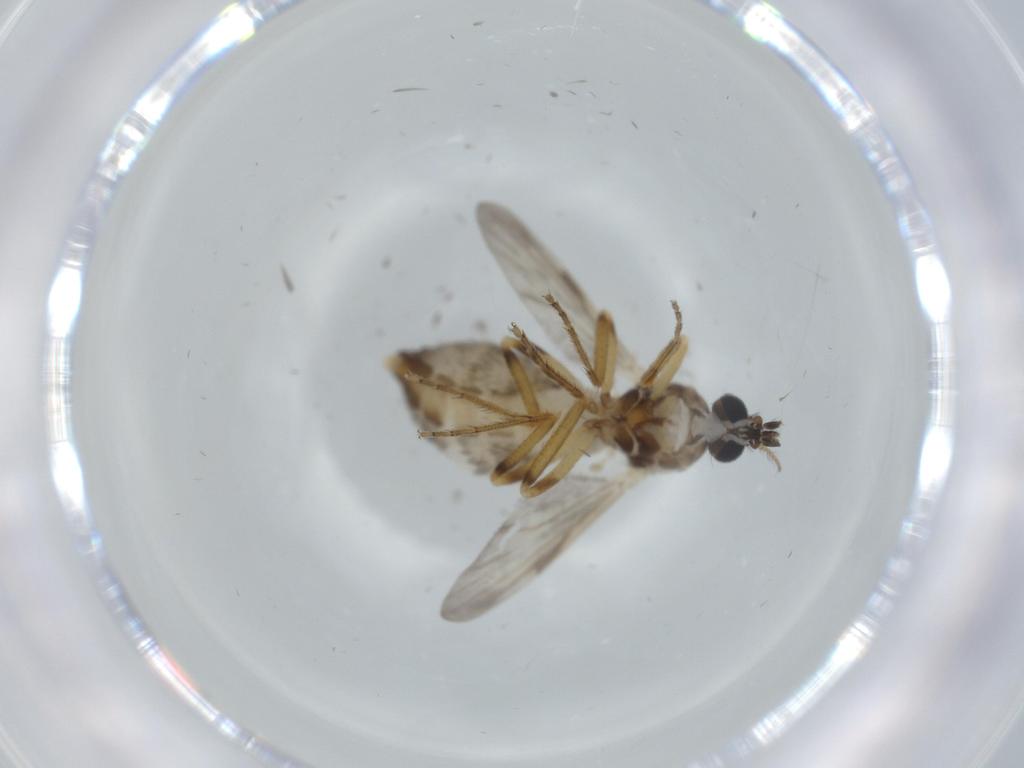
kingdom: Animalia
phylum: Arthropoda
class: Insecta
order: Diptera
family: Ceratopogonidae
